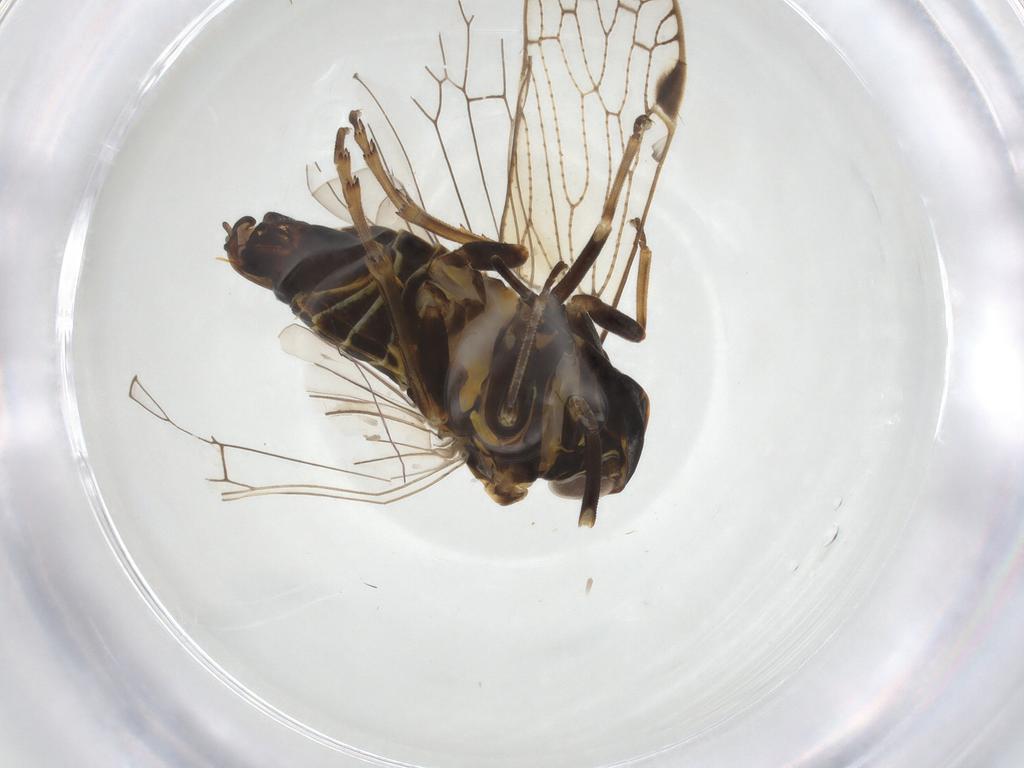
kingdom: Animalia
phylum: Arthropoda
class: Insecta
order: Hemiptera
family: Cixiidae
